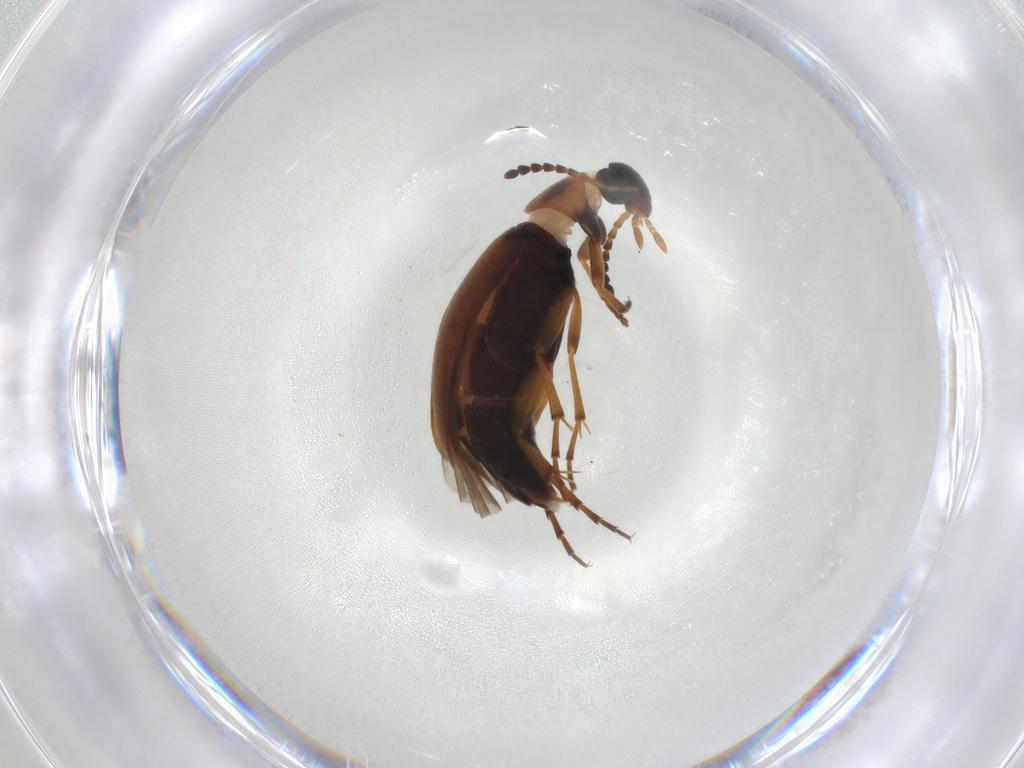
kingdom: Animalia
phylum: Arthropoda
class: Insecta
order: Coleoptera
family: Scraptiidae
